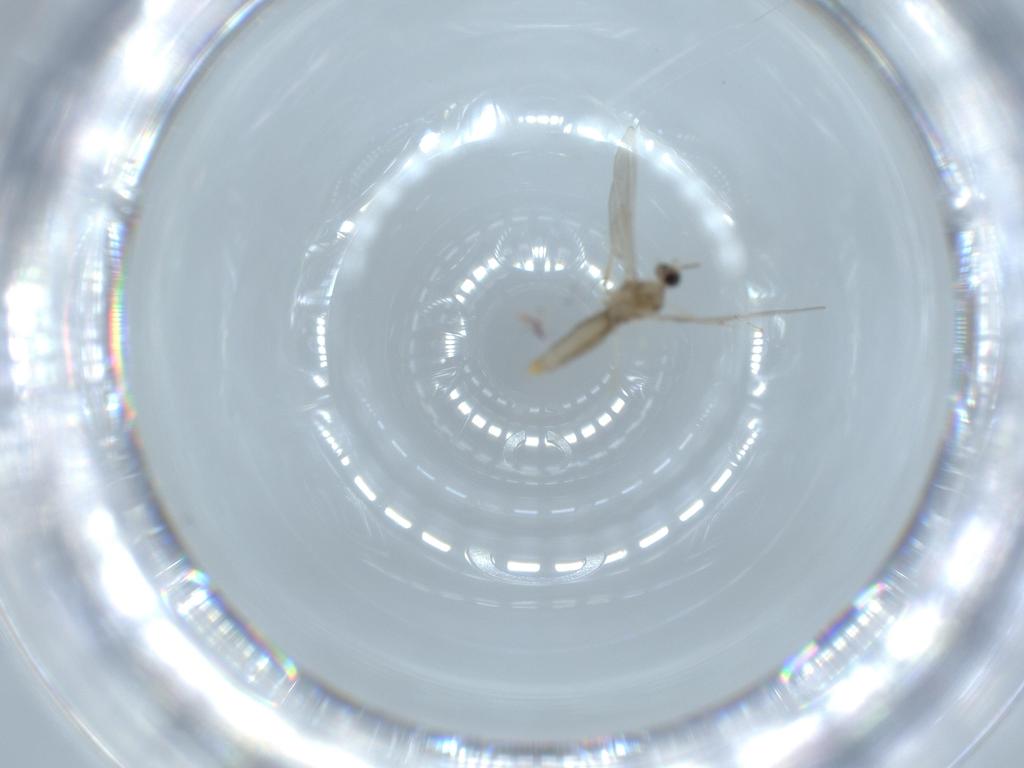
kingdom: Animalia
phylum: Arthropoda
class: Insecta
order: Diptera
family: Cecidomyiidae
